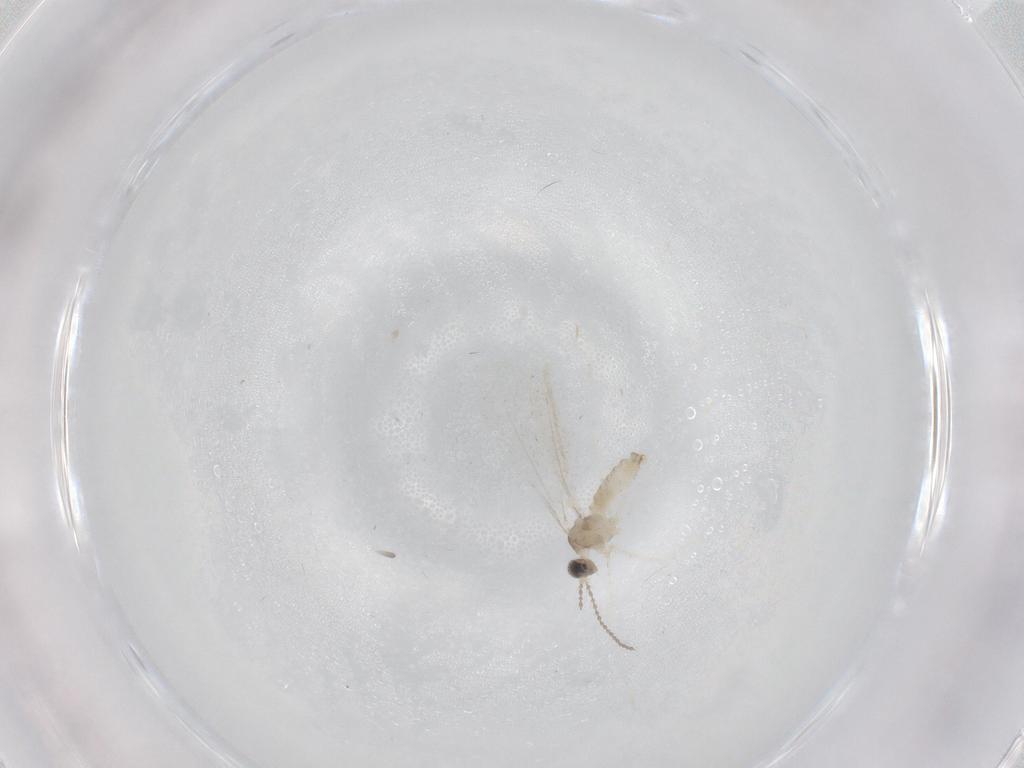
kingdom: Animalia
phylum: Arthropoda
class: Insecta
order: Diptera
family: Cecidomyiidae
